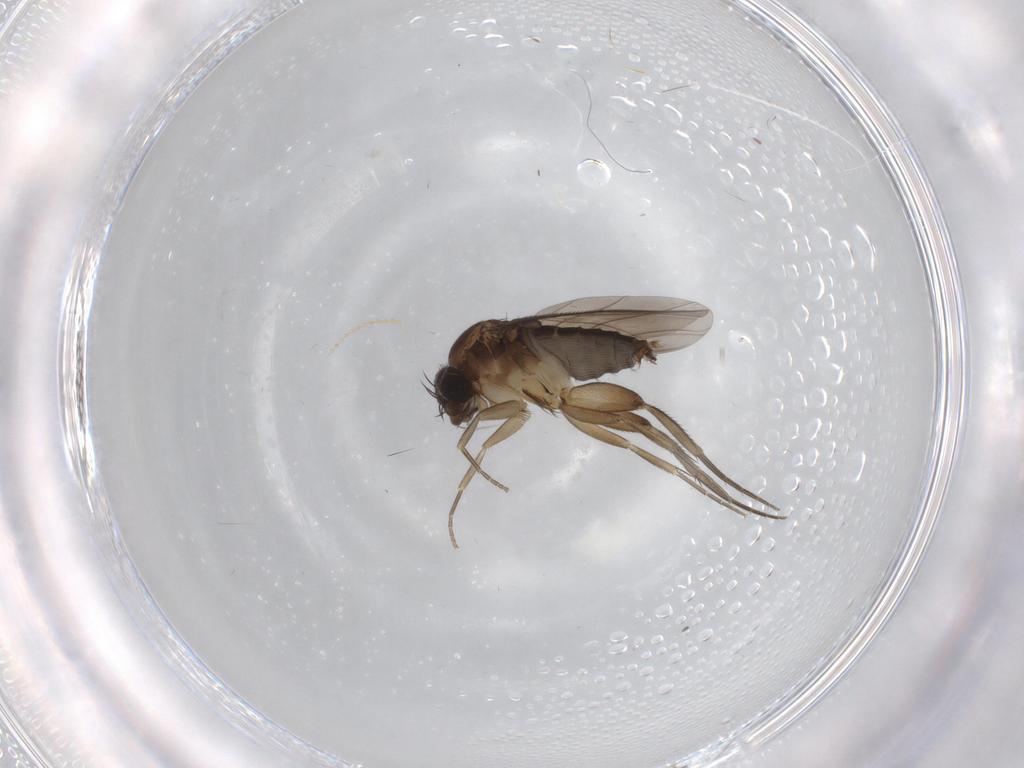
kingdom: Animalia
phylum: Arthropoda
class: Insecta
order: Diptera
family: Phoridae
